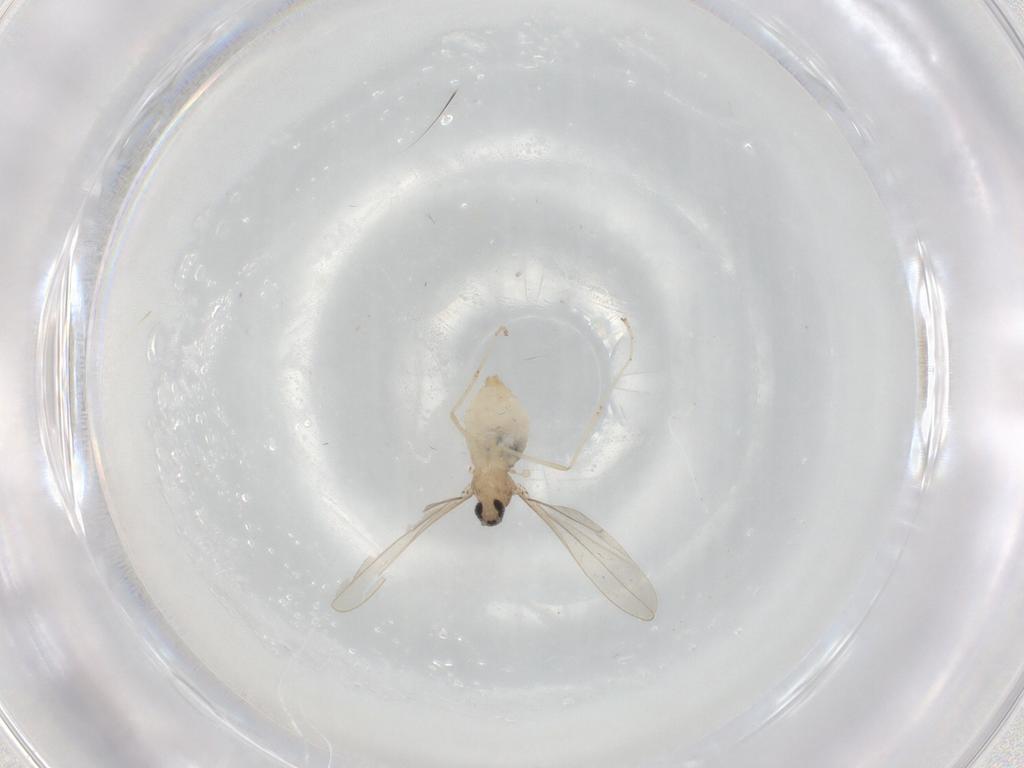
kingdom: Animalia
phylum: Arthropoda
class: Insecta
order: Diptera
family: Cecidomyiidae
